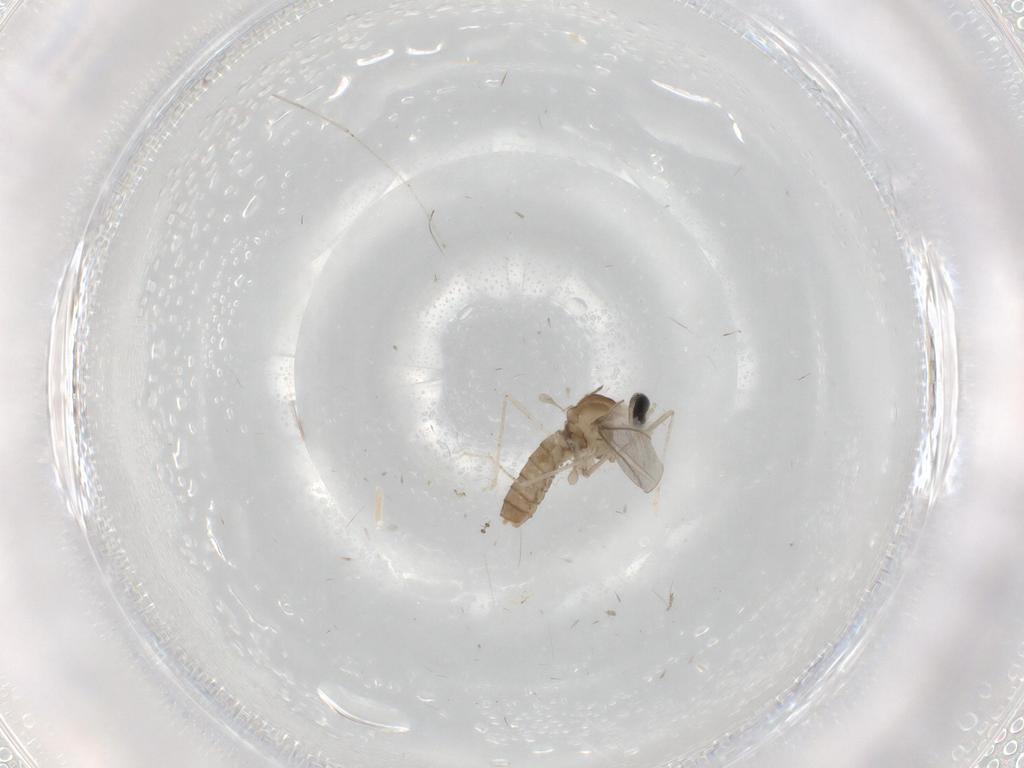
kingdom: Animalia
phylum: Arthropoda
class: Insecta
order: Diptera
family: Cecidomyiidae
